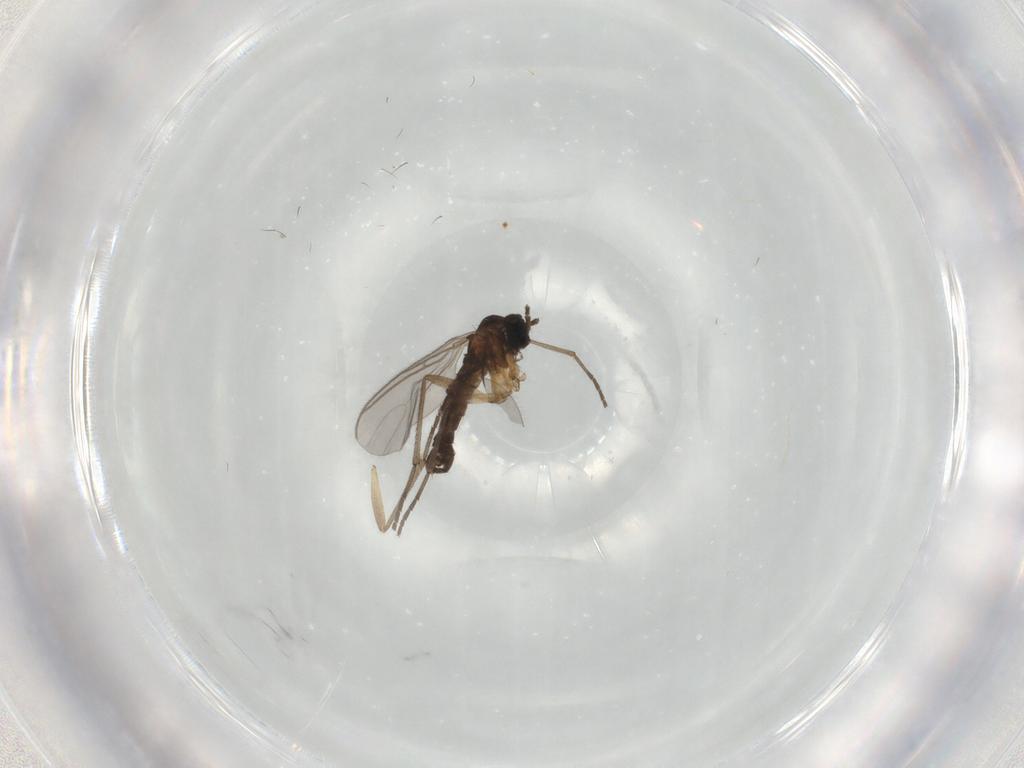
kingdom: Animalia
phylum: Arthropoda
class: Insecta
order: Diptera
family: Sciaridae
